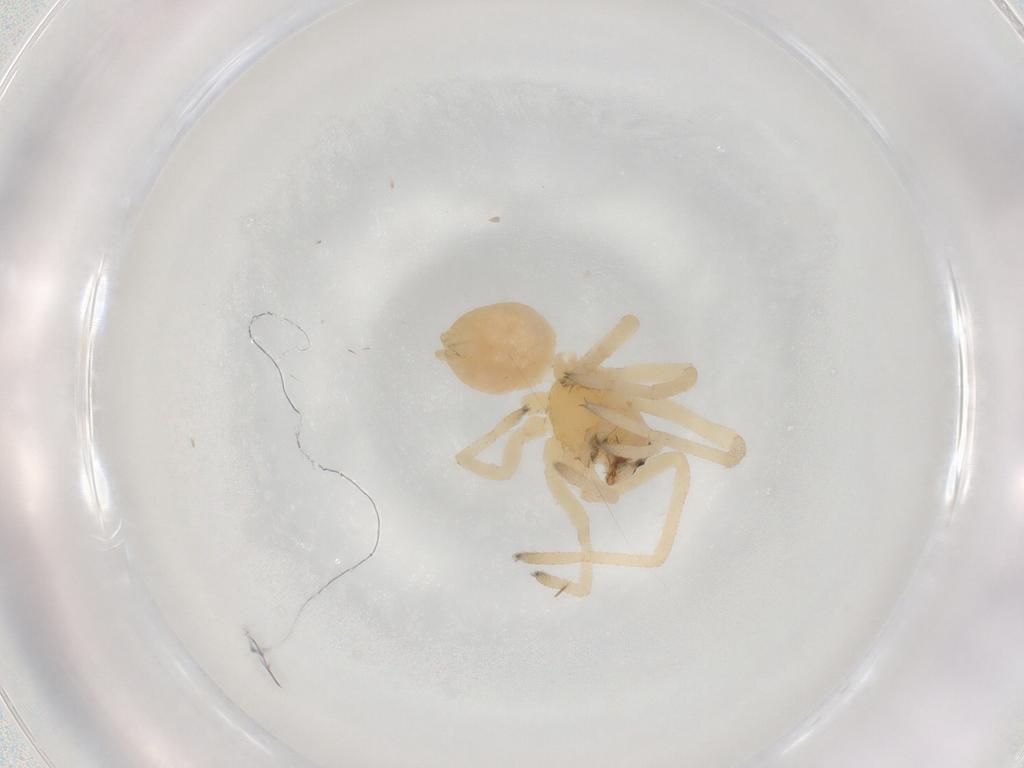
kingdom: Animalia
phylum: Arthropoda
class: Arachnida
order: Araneae
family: Cheiracanthiidae
